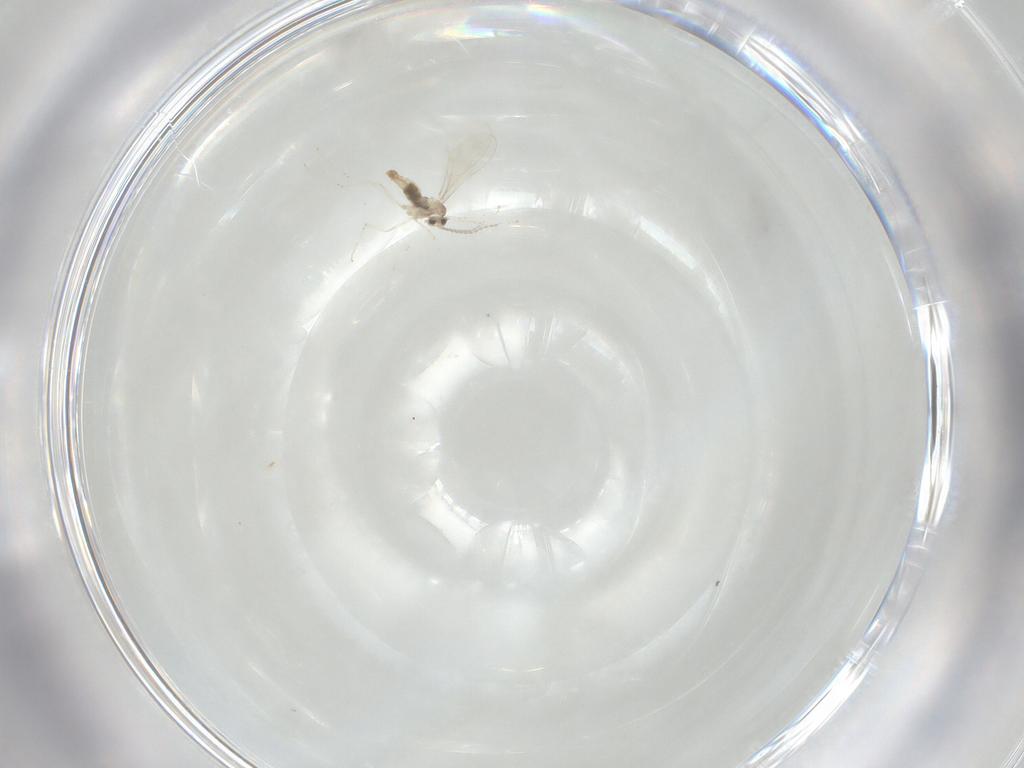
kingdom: Animalia
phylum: Arthropoda
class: Insecta
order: Diptera
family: Cecidomyiidae
